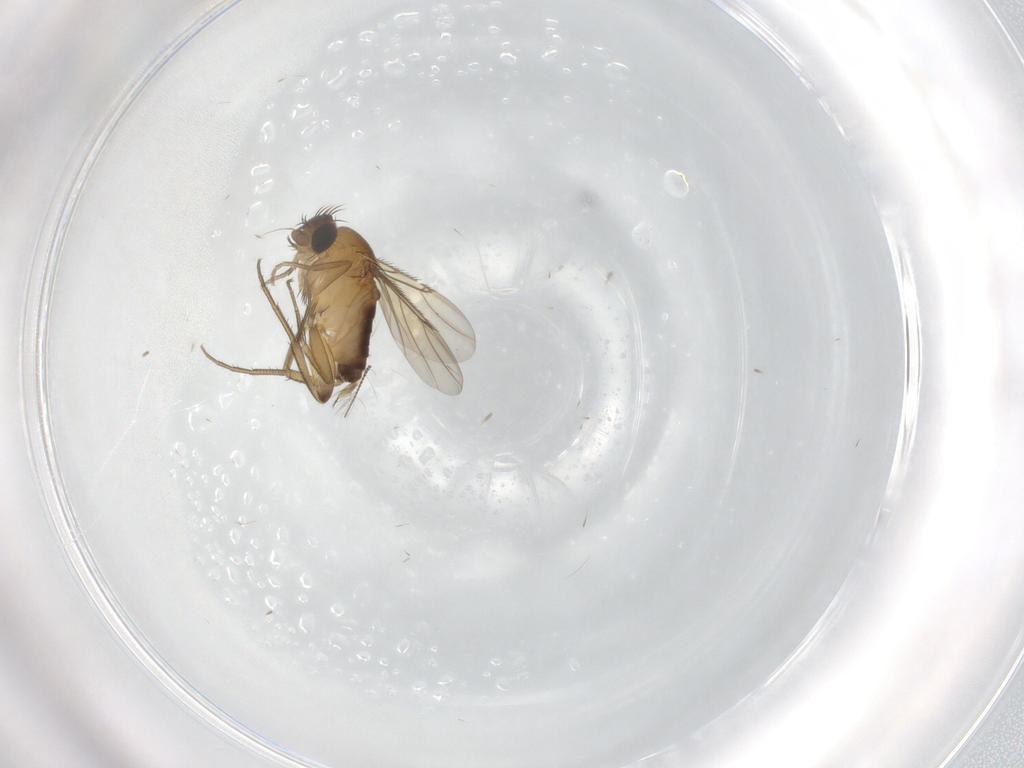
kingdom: Animalia
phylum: Arthropoda
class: Insecta
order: Diptera
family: Phoridae
